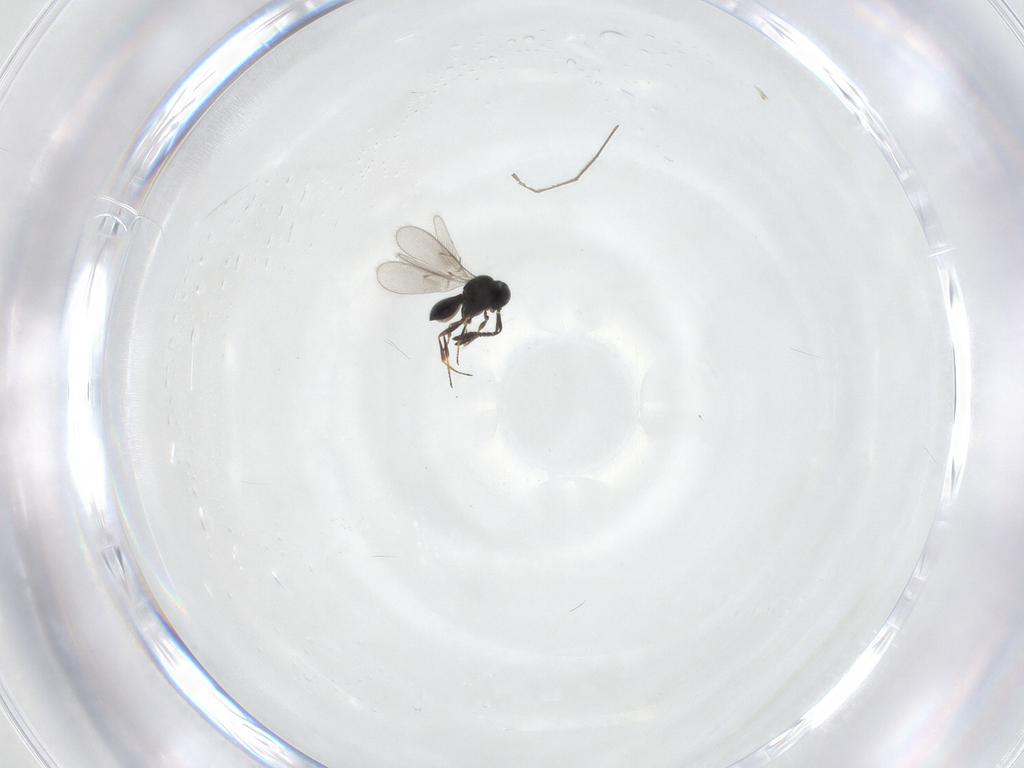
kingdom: Animalia
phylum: Arthropoda
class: Insecta
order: Hymenoptera
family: Scelionidae
